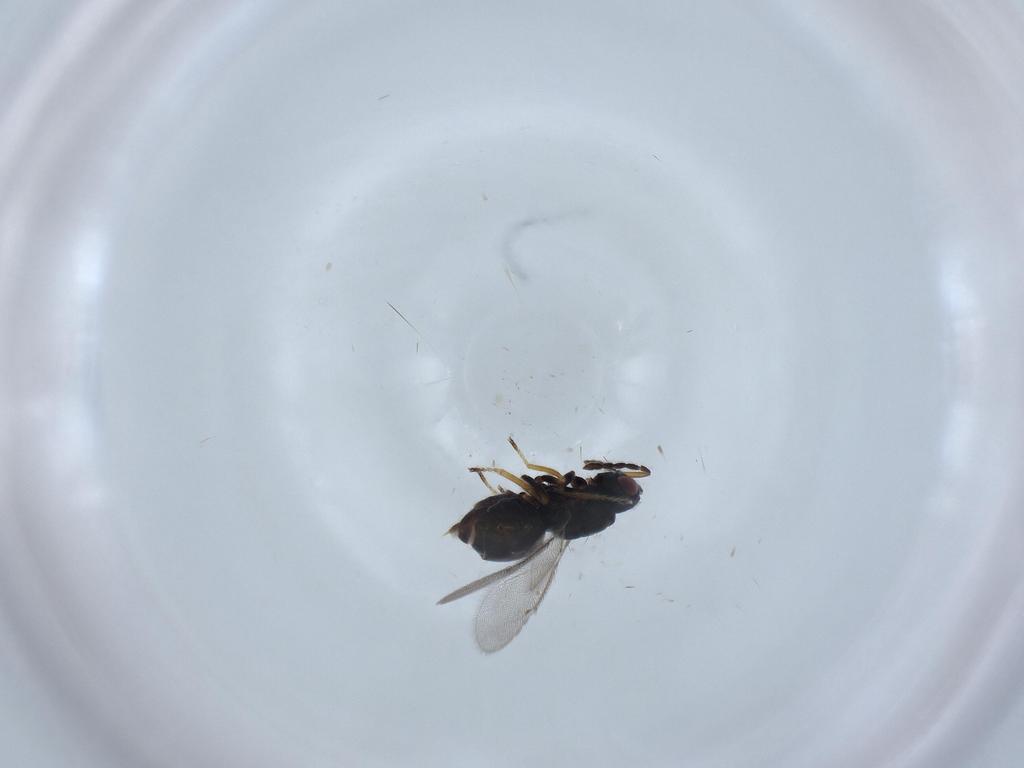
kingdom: Animalia
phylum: Arthropoda
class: Insecta
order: Hymenoptera
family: Eulophidae
